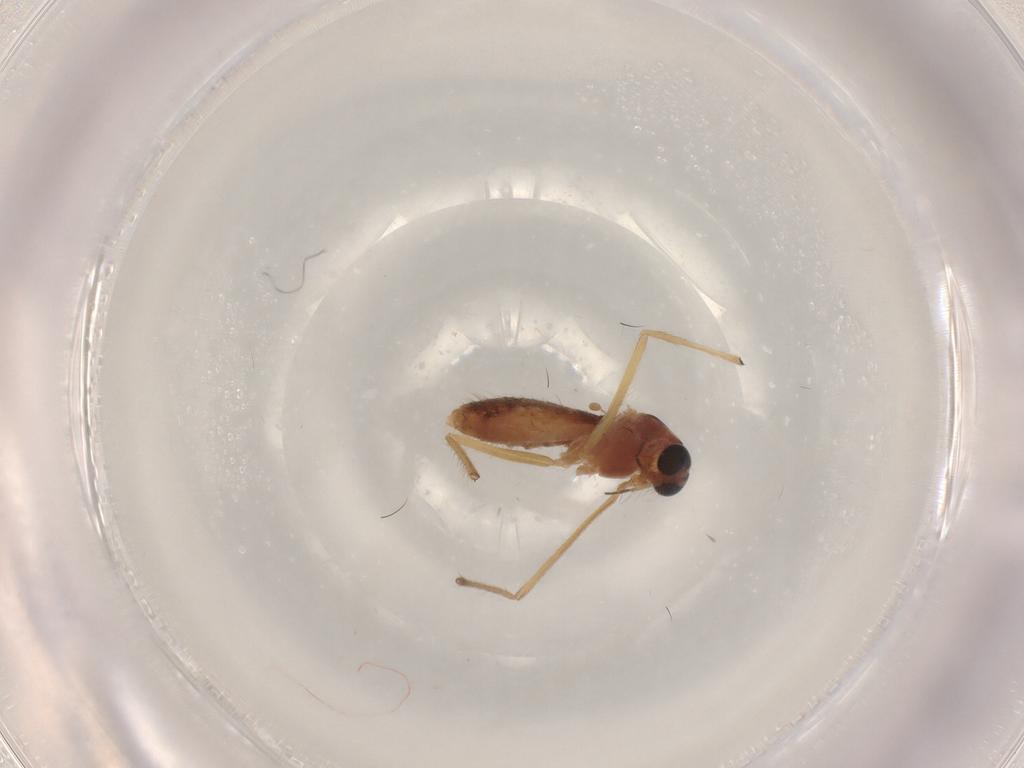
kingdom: Animalia
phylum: Arthropoda
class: Insecta
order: Diptera
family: Chironomidae
